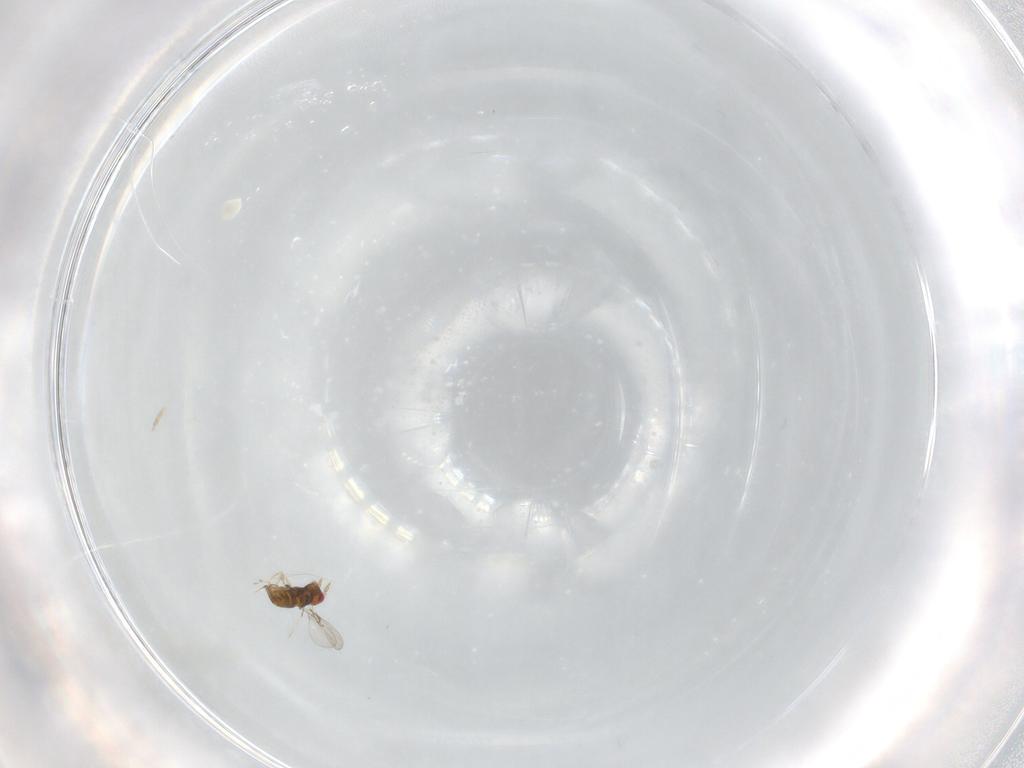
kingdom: Animalia
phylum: Arthropoda
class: Insecta
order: Hymenoptera
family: Trichogrammatidae
